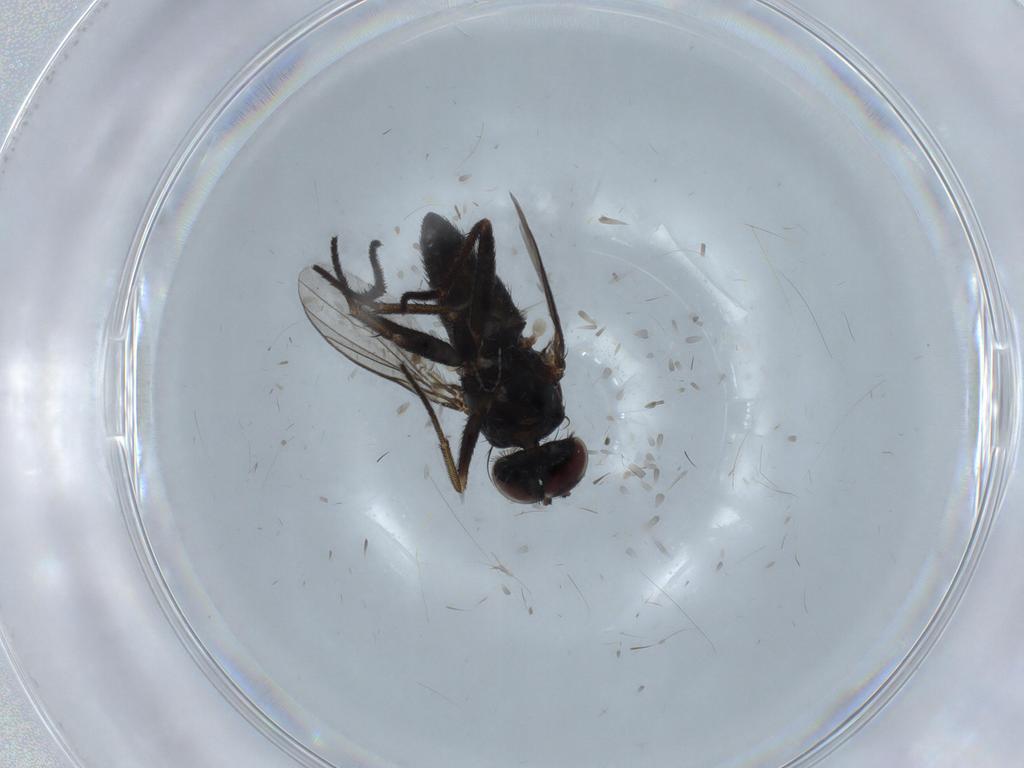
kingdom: Animalia
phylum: Arthropoda
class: Insecta
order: Diptera
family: Dolichopodidae
